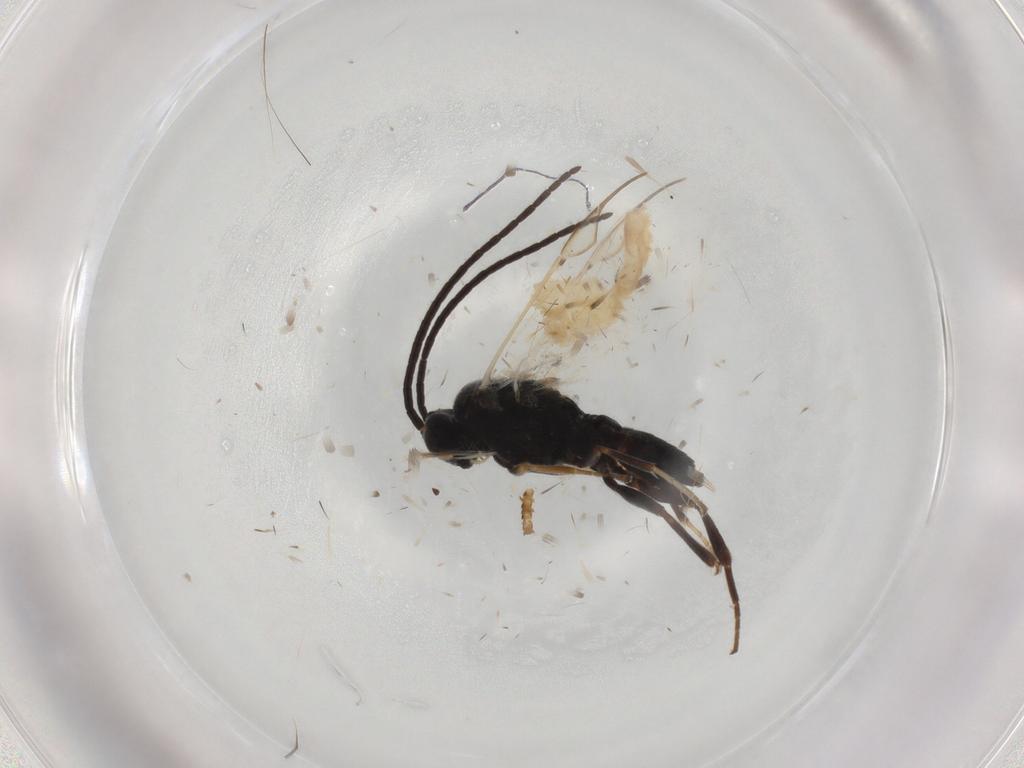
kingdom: Animalia
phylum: Arthropoda
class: Insecta
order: Hymenoptera
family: Braconidae
